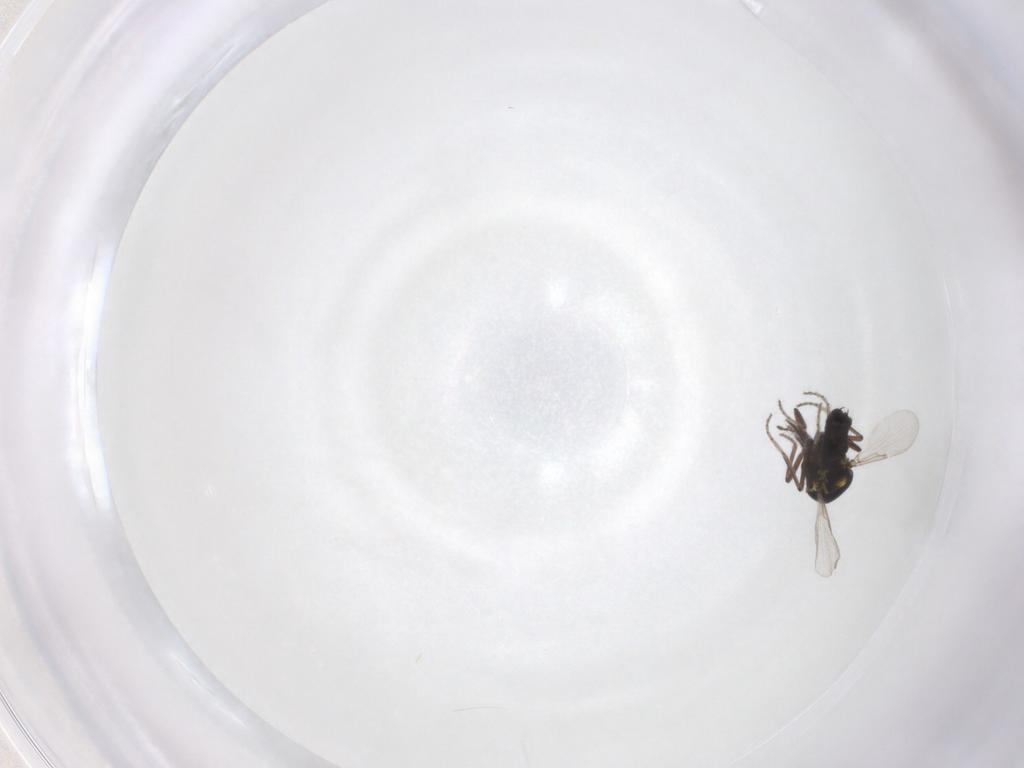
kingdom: Animalia
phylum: Arthropoda
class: Insecta
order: Diptera
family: Ceratopogonidae
